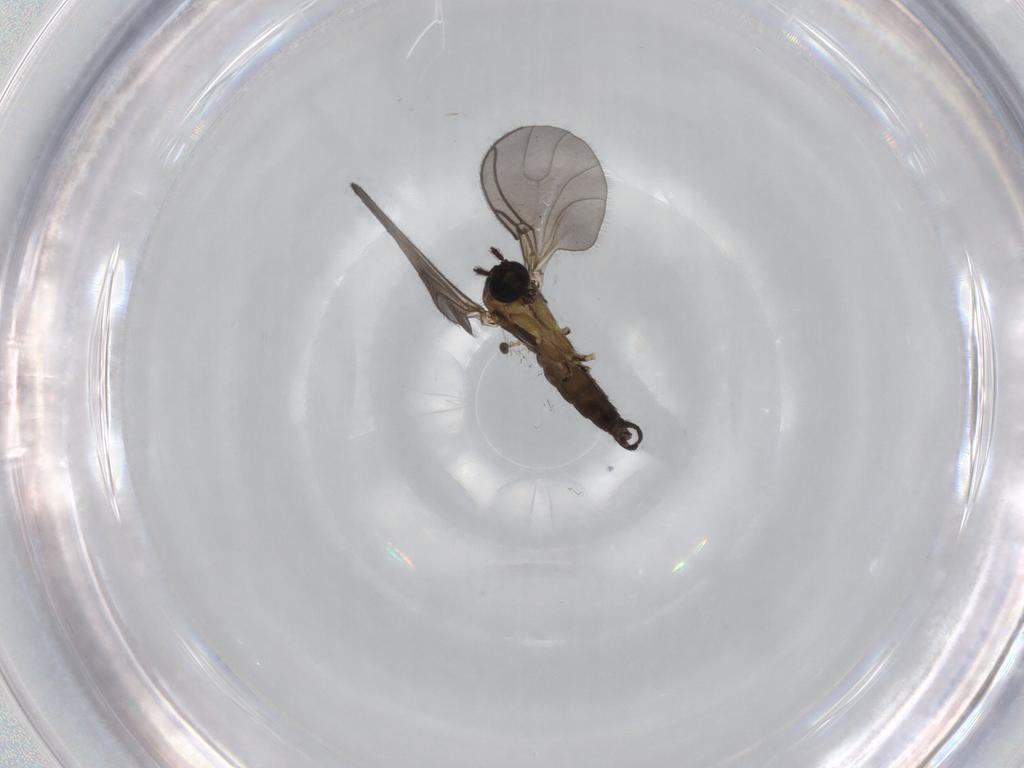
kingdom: Animalia
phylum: Arthropoda
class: Insecta
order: Diptera
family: Sciaridae
